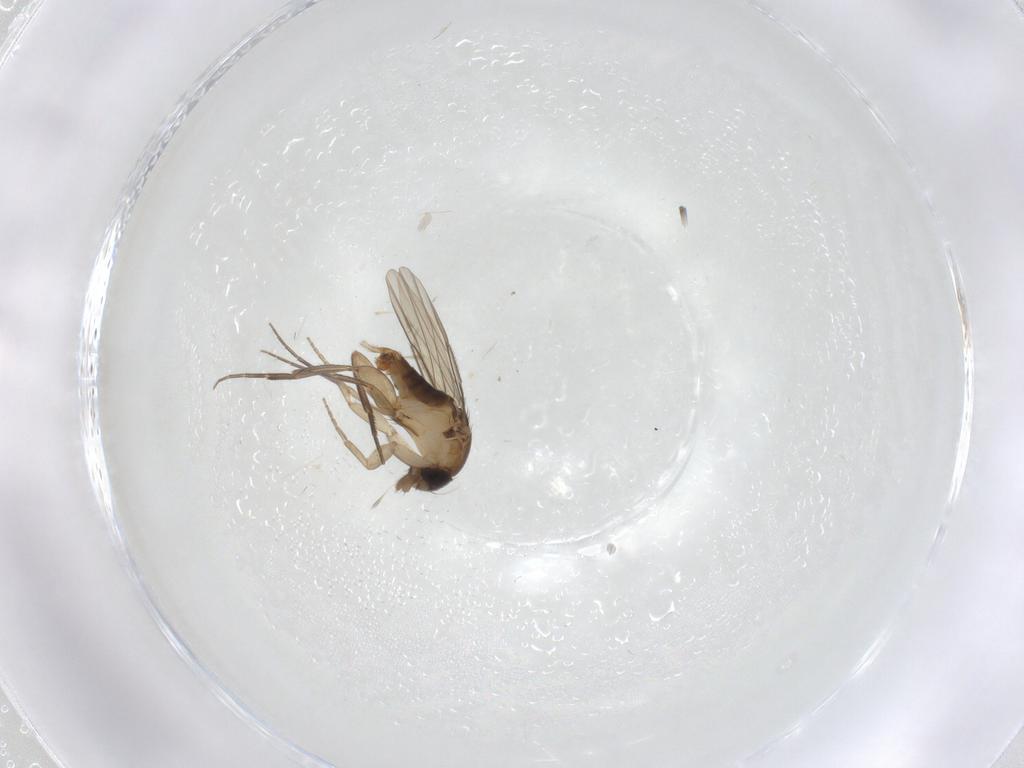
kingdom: Animalia
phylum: Arthropoda
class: Insecta
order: Diptera
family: Phoridae
